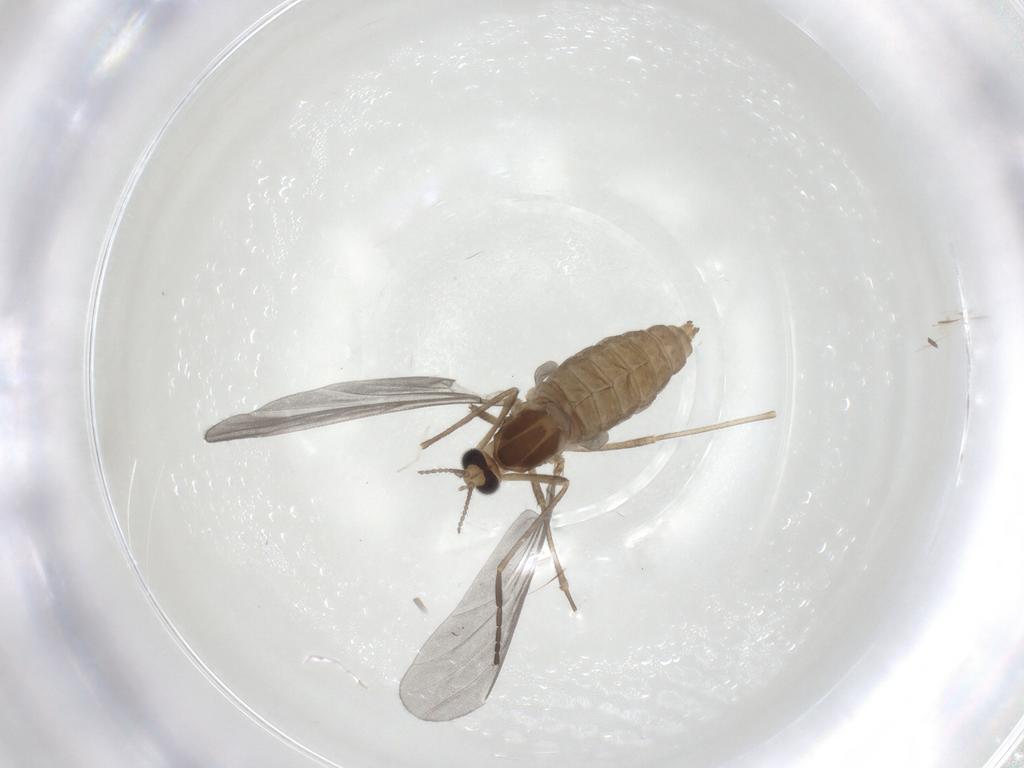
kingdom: Animalia
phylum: Arthropoda
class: Insecta
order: Diptera
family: Cecidomyiidae
